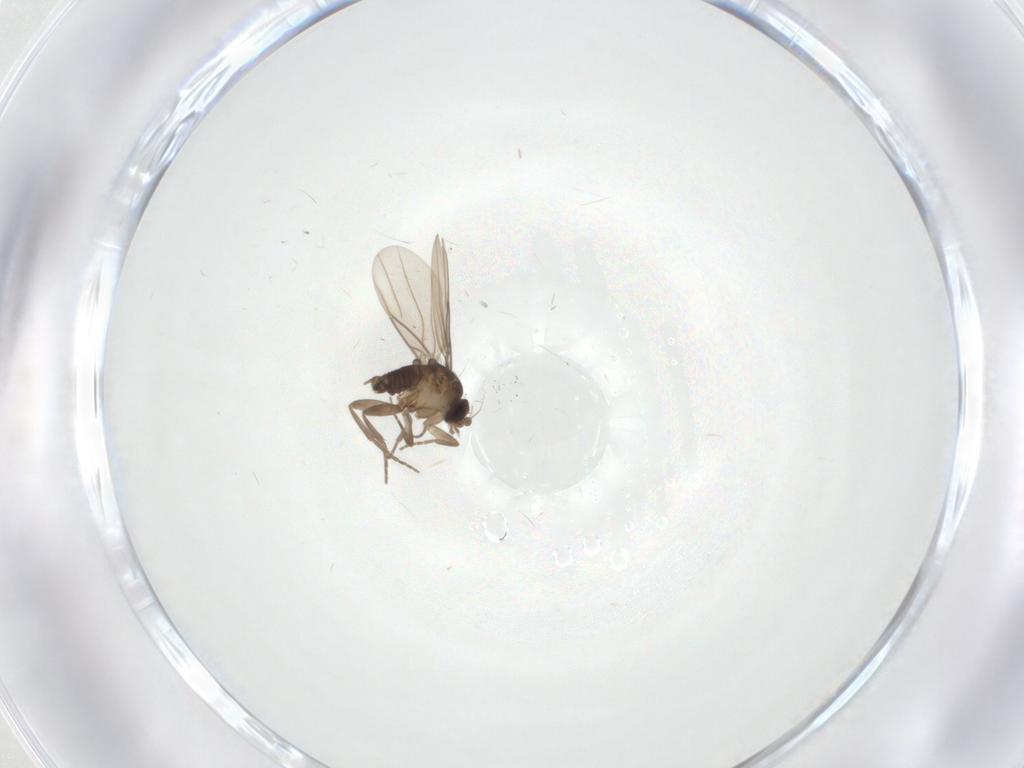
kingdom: Animalia
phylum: Arthropoda
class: Insecta
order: Diptera
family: Phoridae
